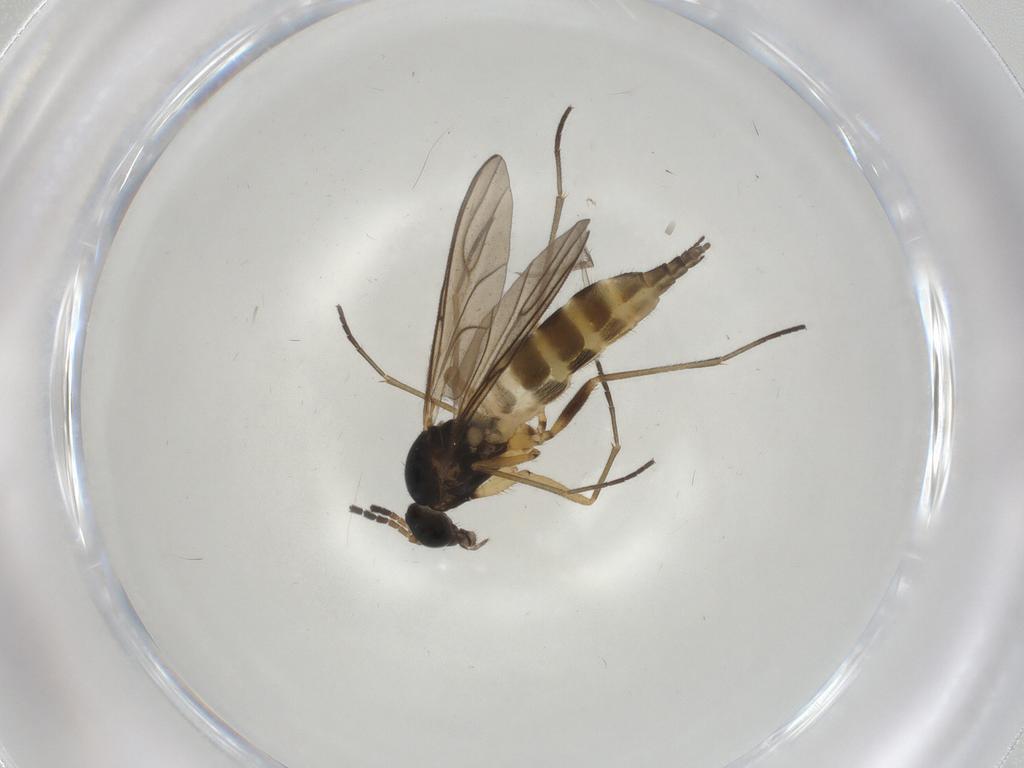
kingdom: Animalia
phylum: Arthropoda
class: Insecta
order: Diptera
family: Sciaridae
